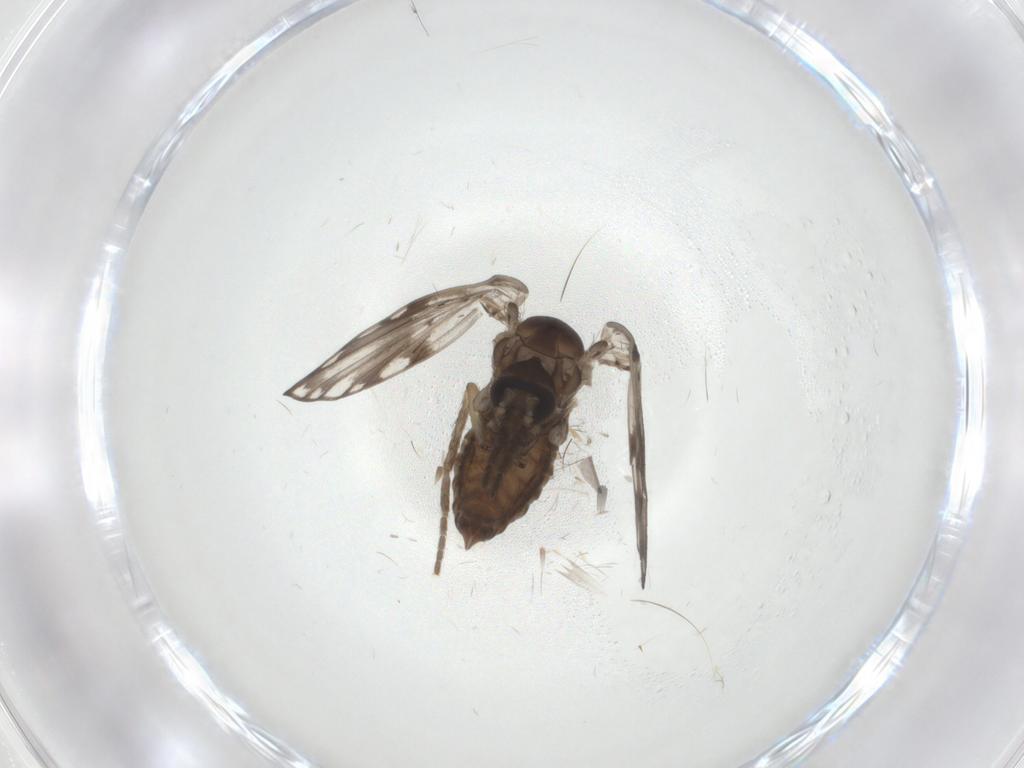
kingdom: Animalia
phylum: Arthropoda
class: Insecta
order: Diptera
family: Psychodidae
